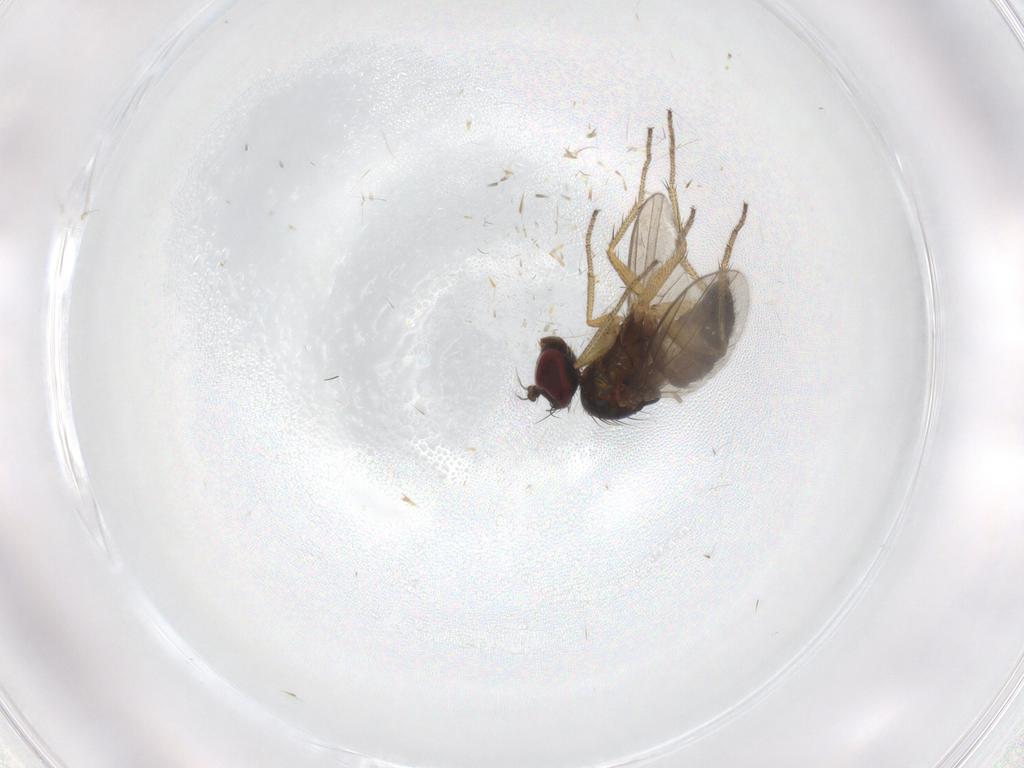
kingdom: Animalia
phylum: Arthropoda
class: Insecta
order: Diptera
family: Dolichopodidae
